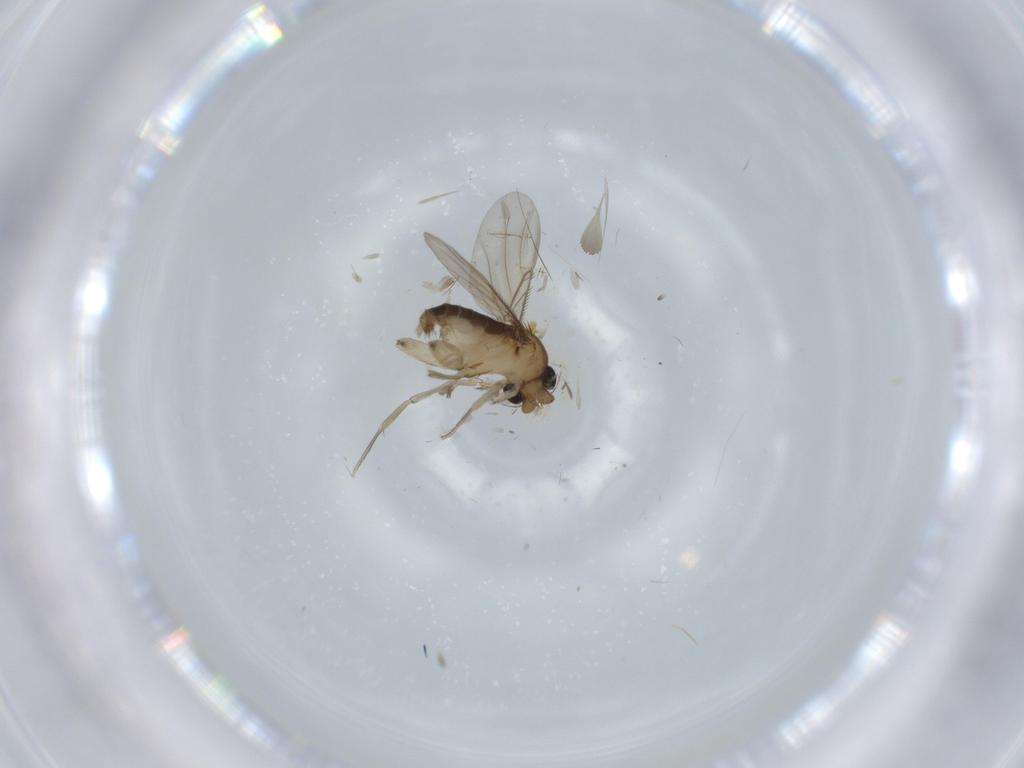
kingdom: Animalia
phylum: Arthropoda
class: Insecta
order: Diptera
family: Phoridae
